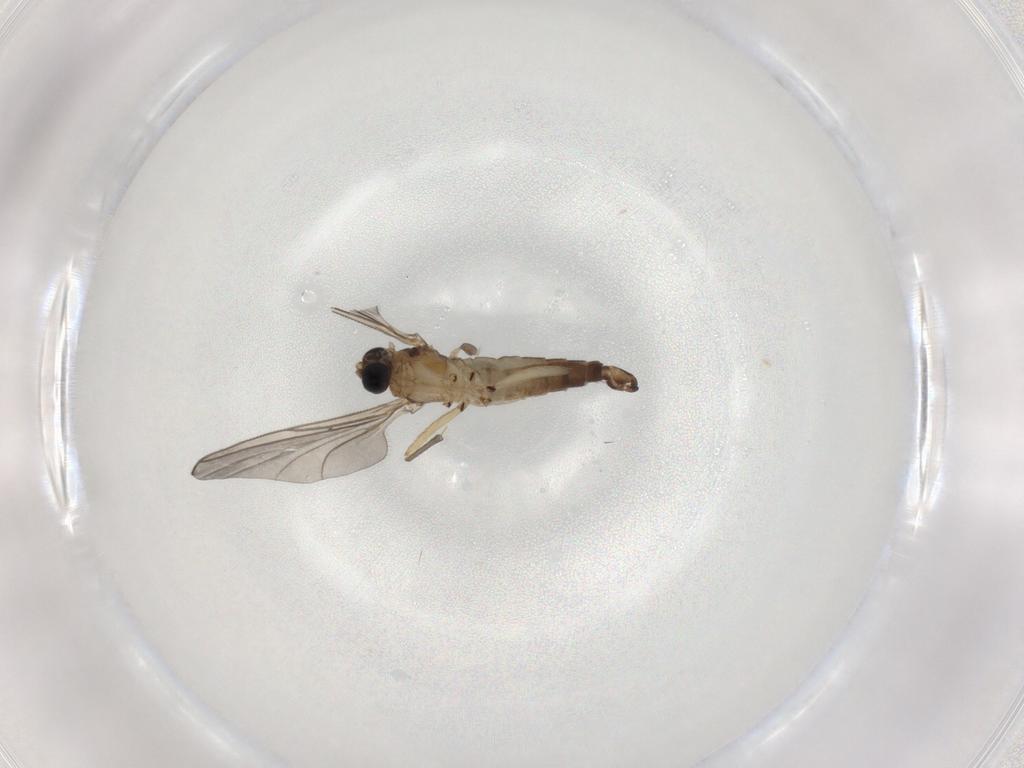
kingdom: Animalia
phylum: Arthropoda
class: Insecta
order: Diptera
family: Sciaridae
